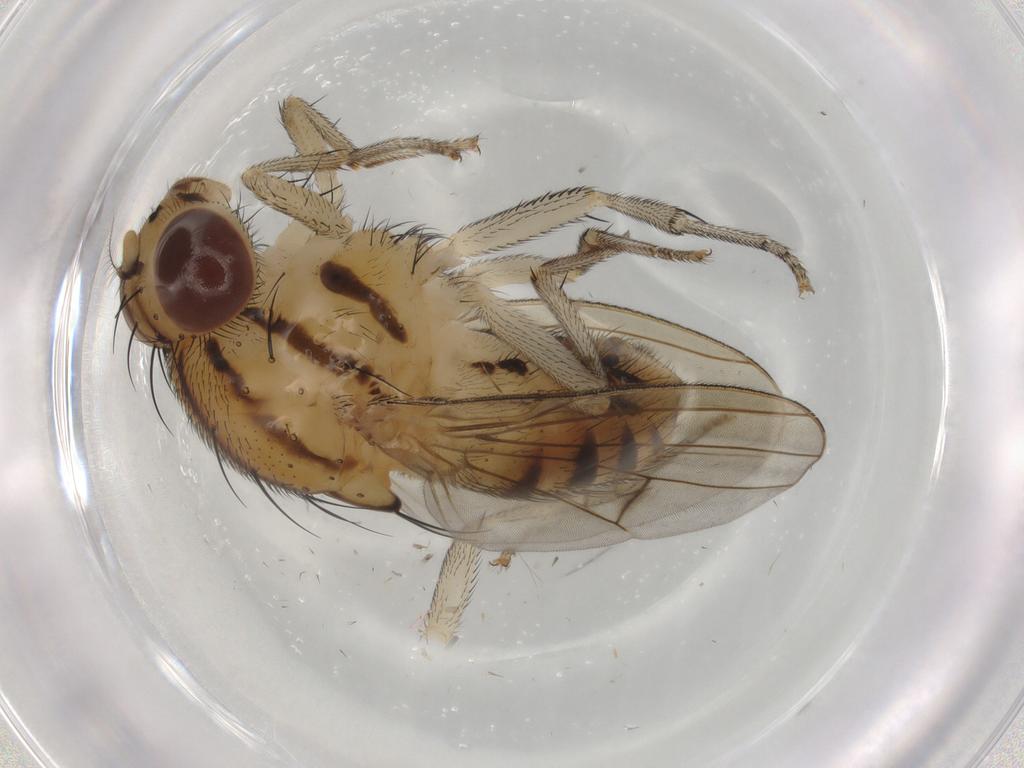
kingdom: Animalia
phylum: Arthropoda
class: Insecta
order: Diptera
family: Lauxaniidae
